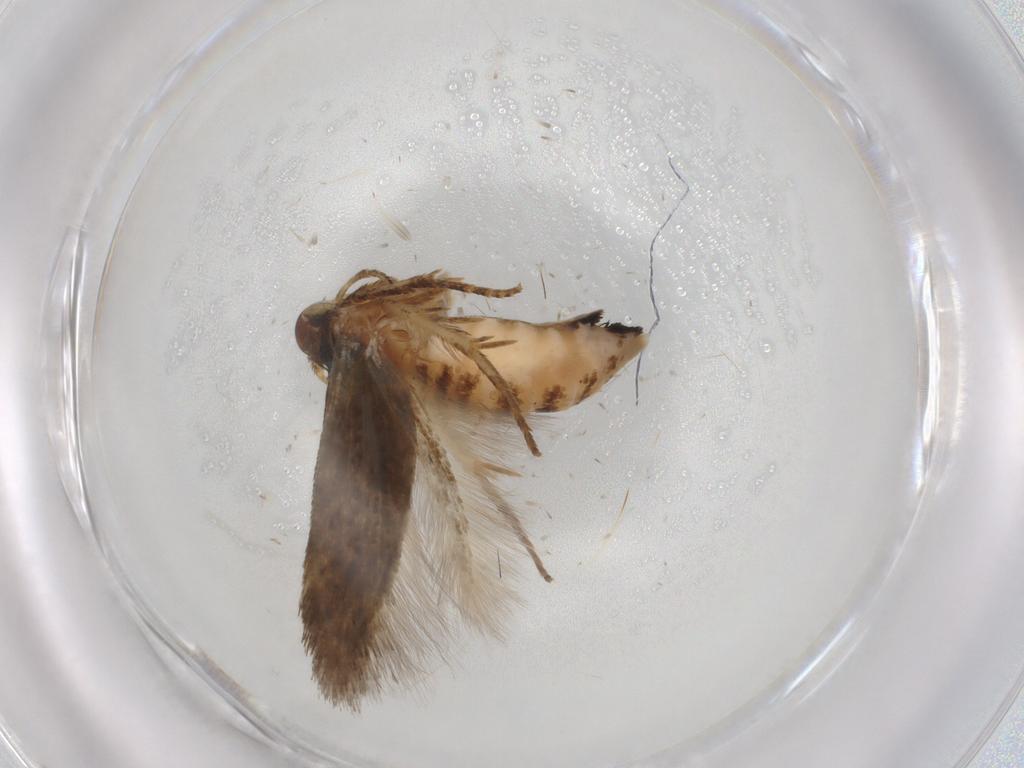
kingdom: Animalia
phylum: Arthropoda
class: Insecta
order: Lepidoptera
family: Cosmopterigidae
